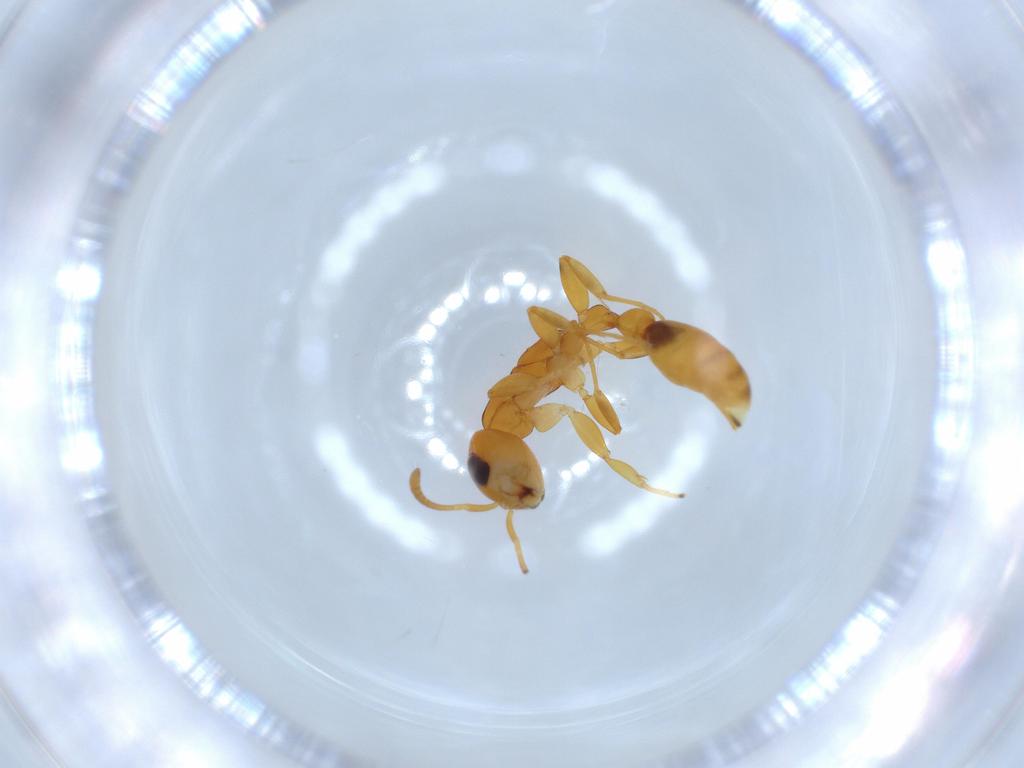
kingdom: Animalia
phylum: Arthropoda
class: Insecta
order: Hymenoptera
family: Formicidae
